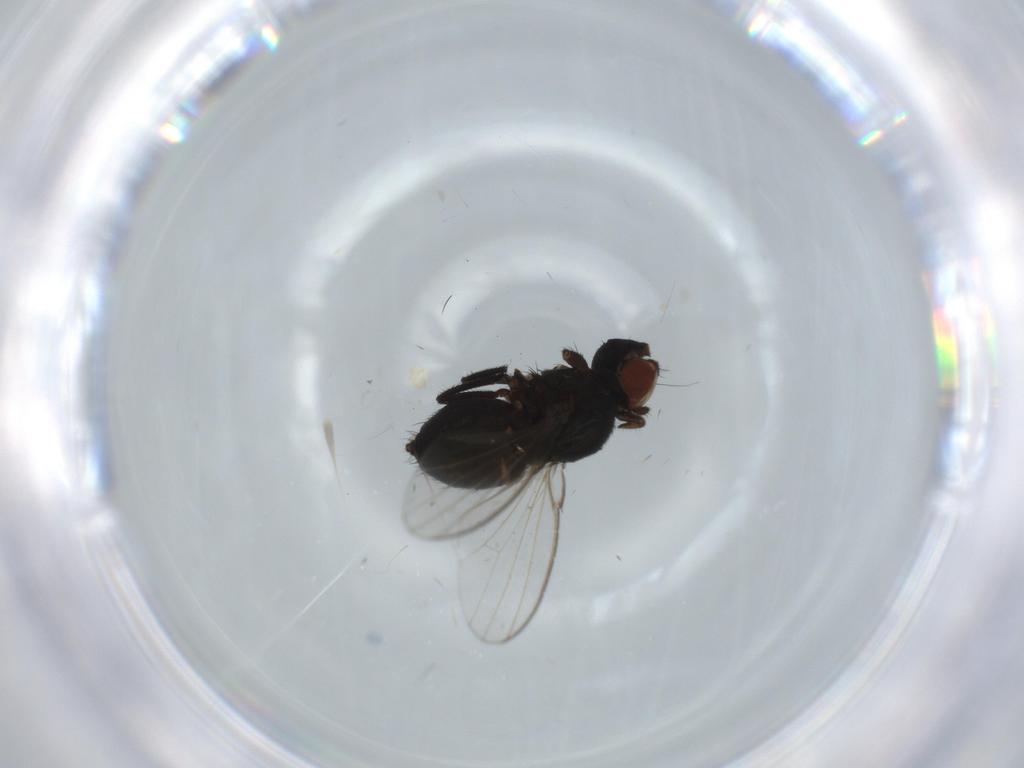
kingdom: Animalia
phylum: Arthropoda
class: Insecta
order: Diptera
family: Milichiidae
